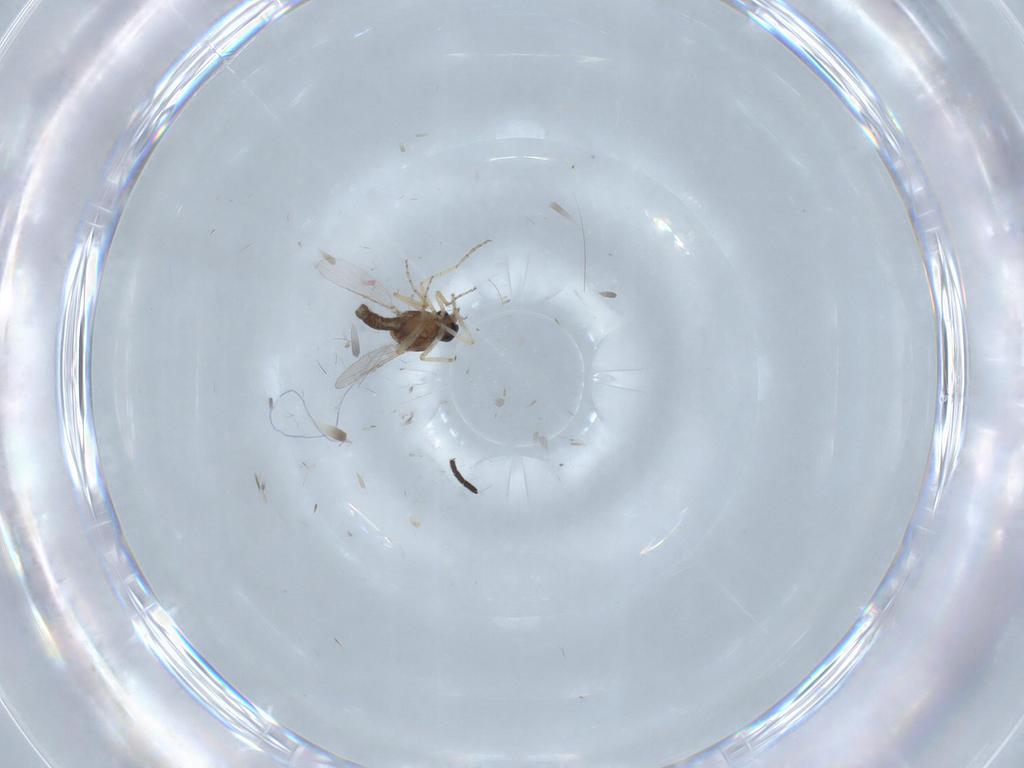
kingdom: Animalia
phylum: Arthropoda
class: Insecta
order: Diptera
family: Ceratopogonidae
